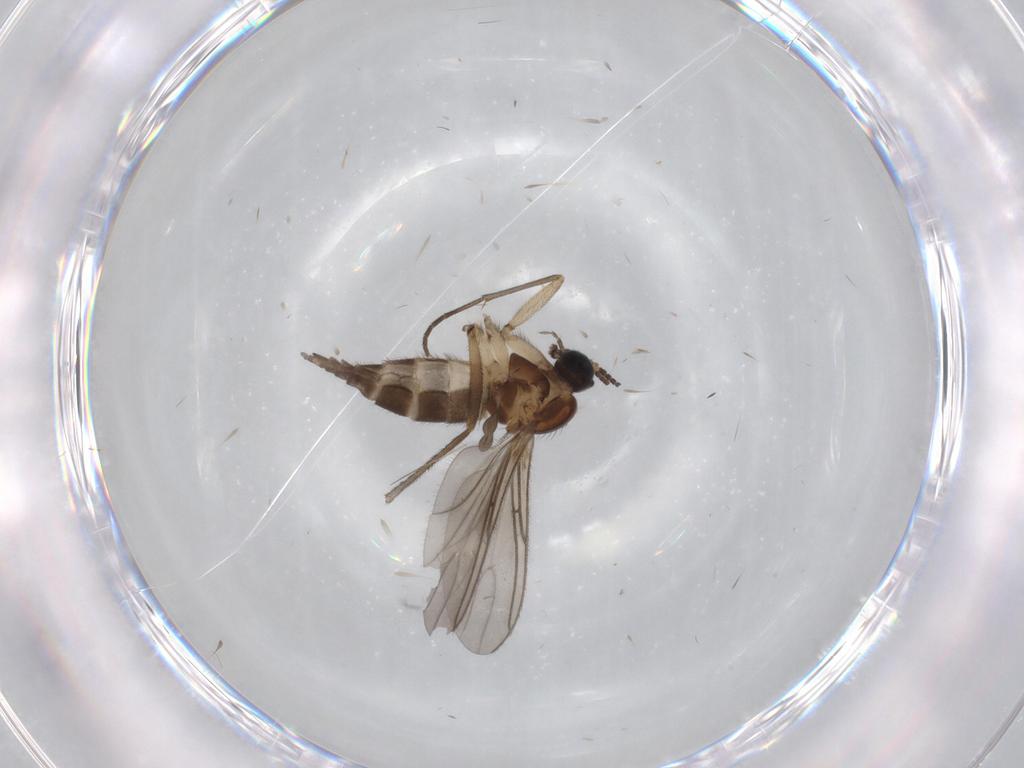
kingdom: Animalia
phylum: Arthropoda
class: Insecta
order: Diptera
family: Sciaridae
